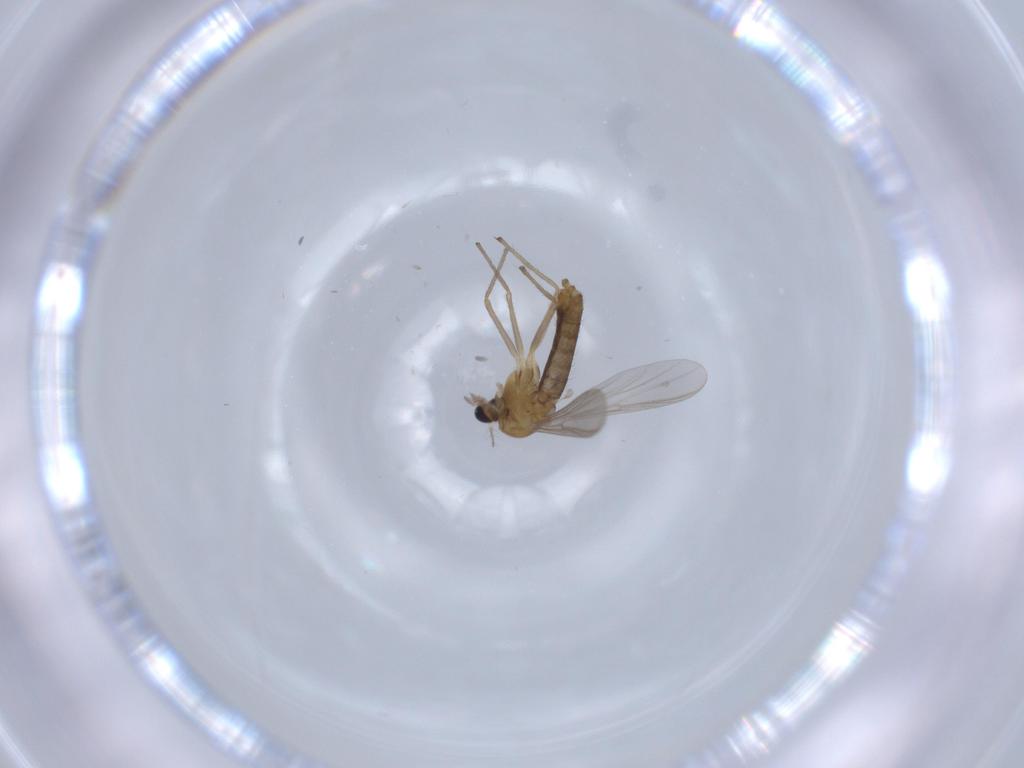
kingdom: Animalia
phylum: Arthropoda
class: Insecta
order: Diptera
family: Chironomidae
